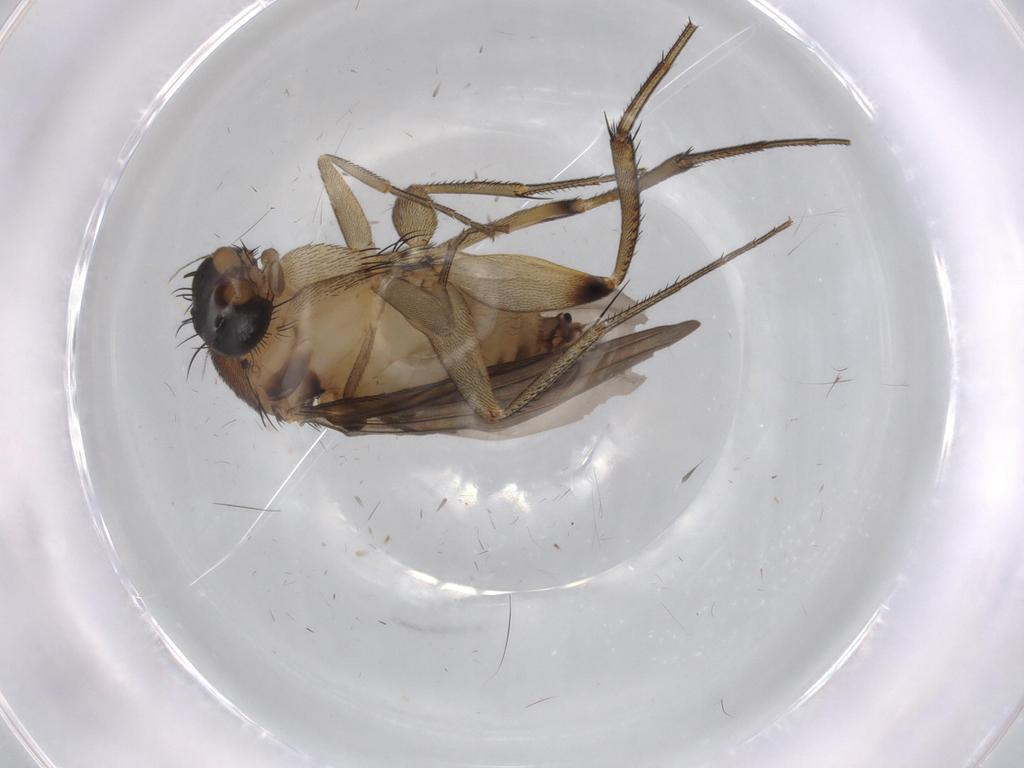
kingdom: Animalia
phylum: Arthropoda
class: Insecta
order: Diptera
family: Phoridae
